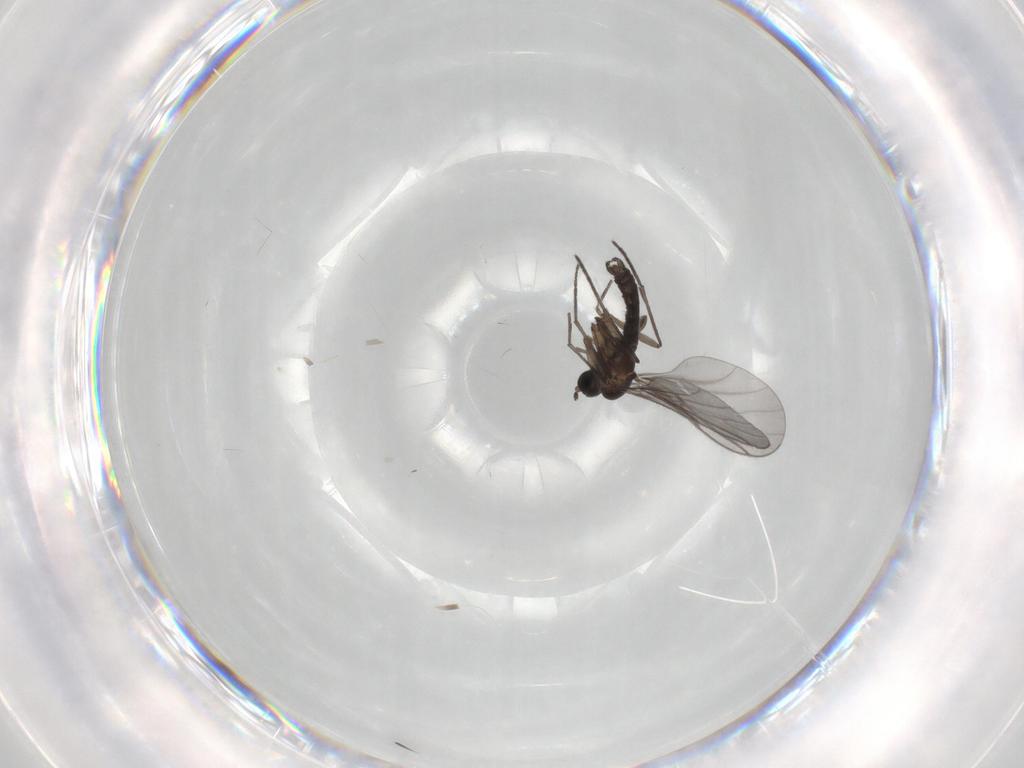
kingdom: Animalia
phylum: Arthropoda
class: Insecta
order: Diptera
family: Sciaridae
